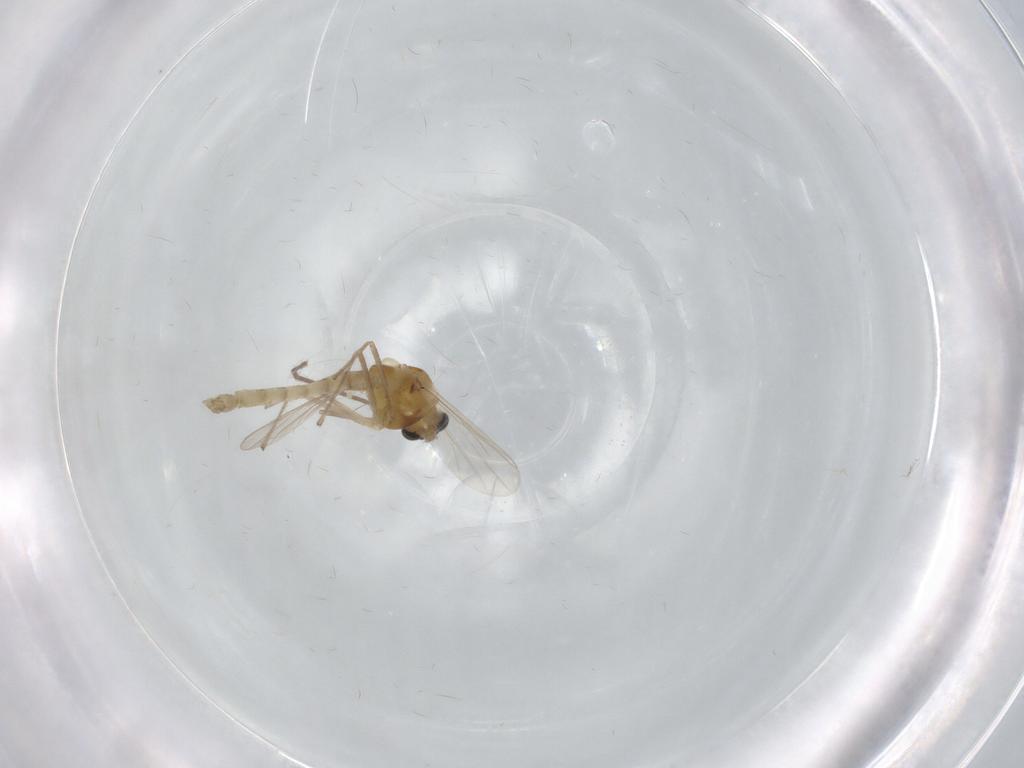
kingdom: Animalia
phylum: Arthropoda
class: Insecta
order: Diptera
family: Chironomidae
